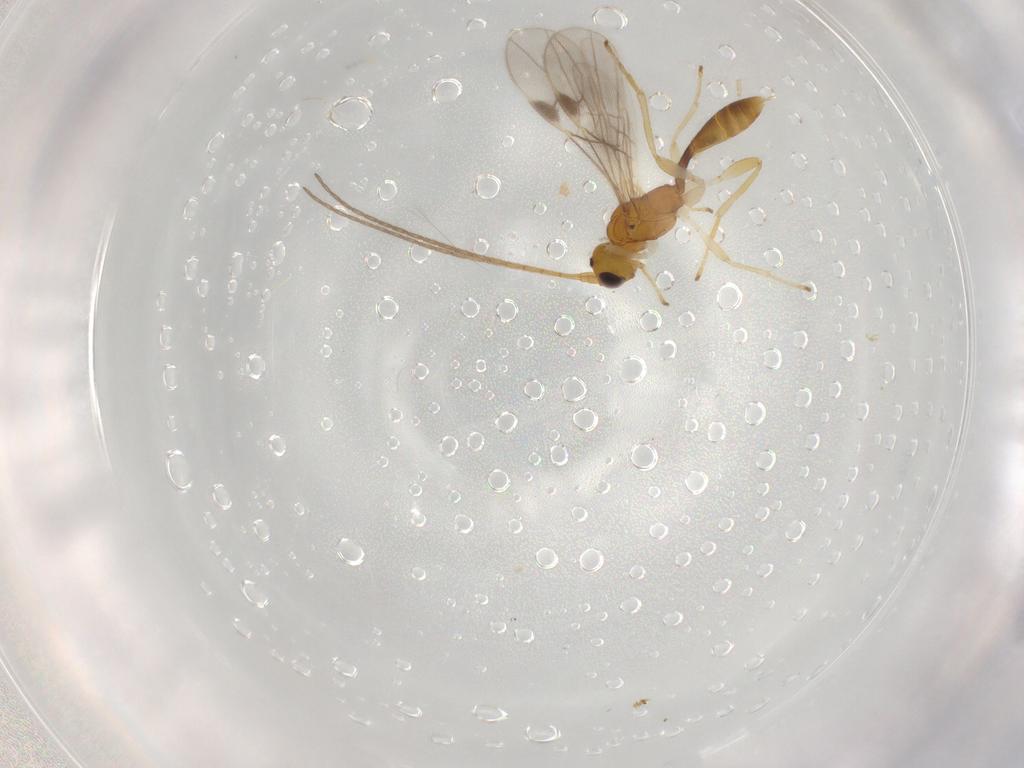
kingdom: Animalia
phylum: Arthropoda
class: Insecta
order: Hymenoptera
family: Braconidae
